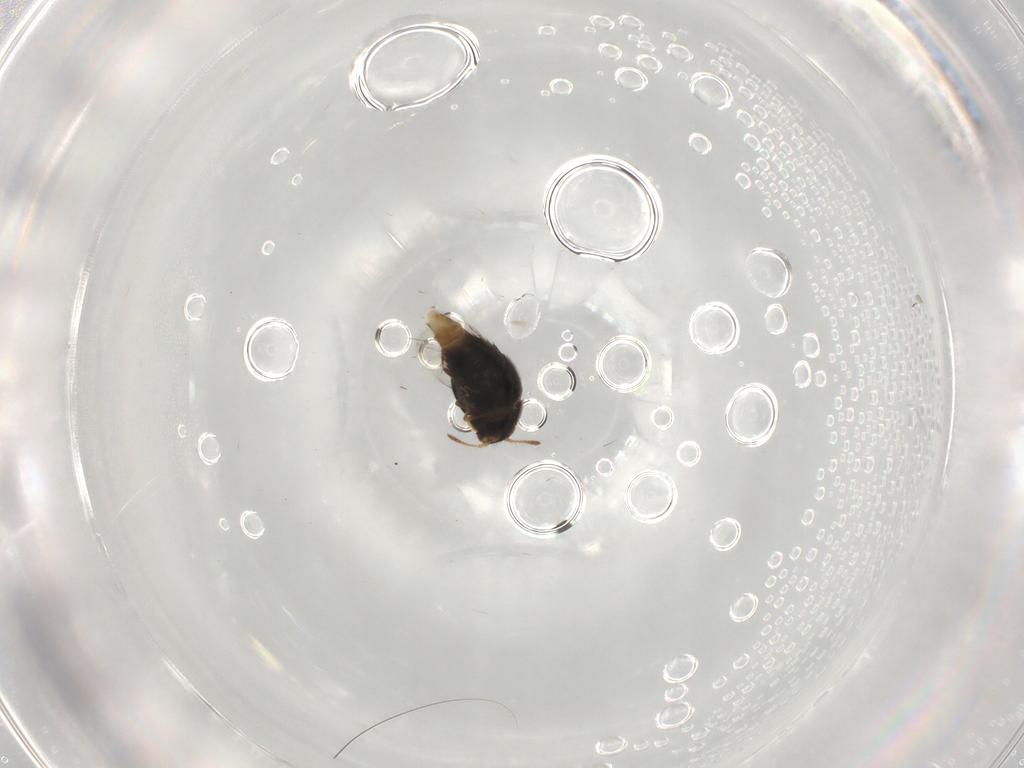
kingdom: Animalia
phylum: Arthropoda
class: Insecta
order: Coleoptera
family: Staphylinidae
